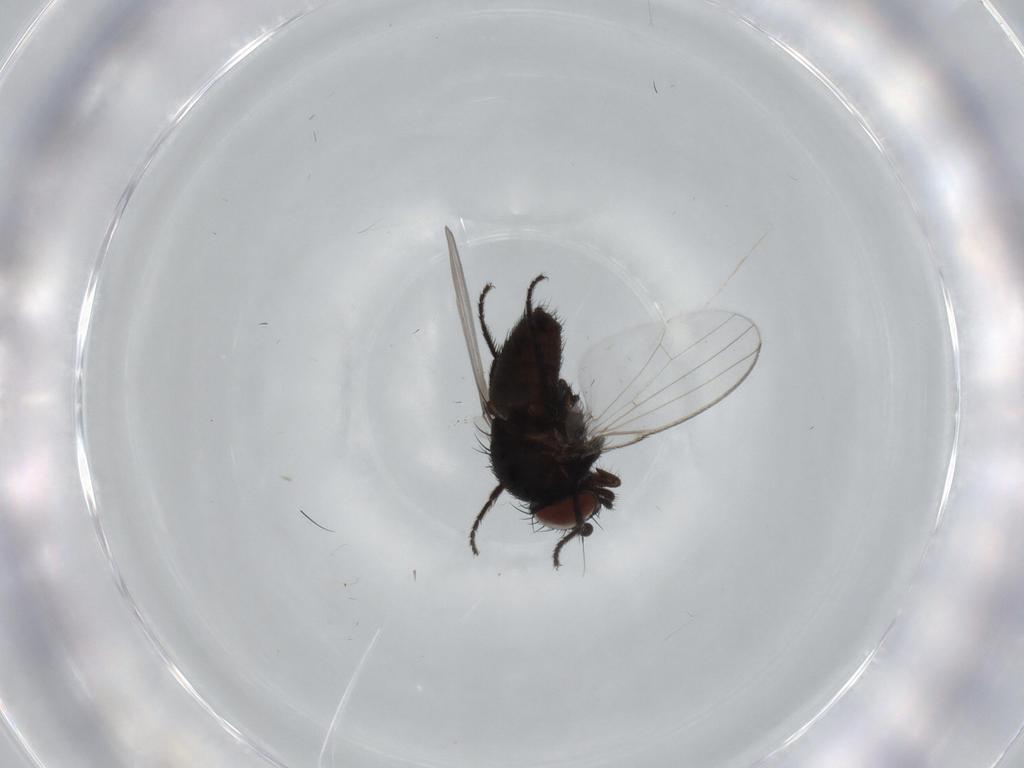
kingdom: Animalia
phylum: Arthropoda
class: Insecta
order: Diptera
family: Milichiidae
